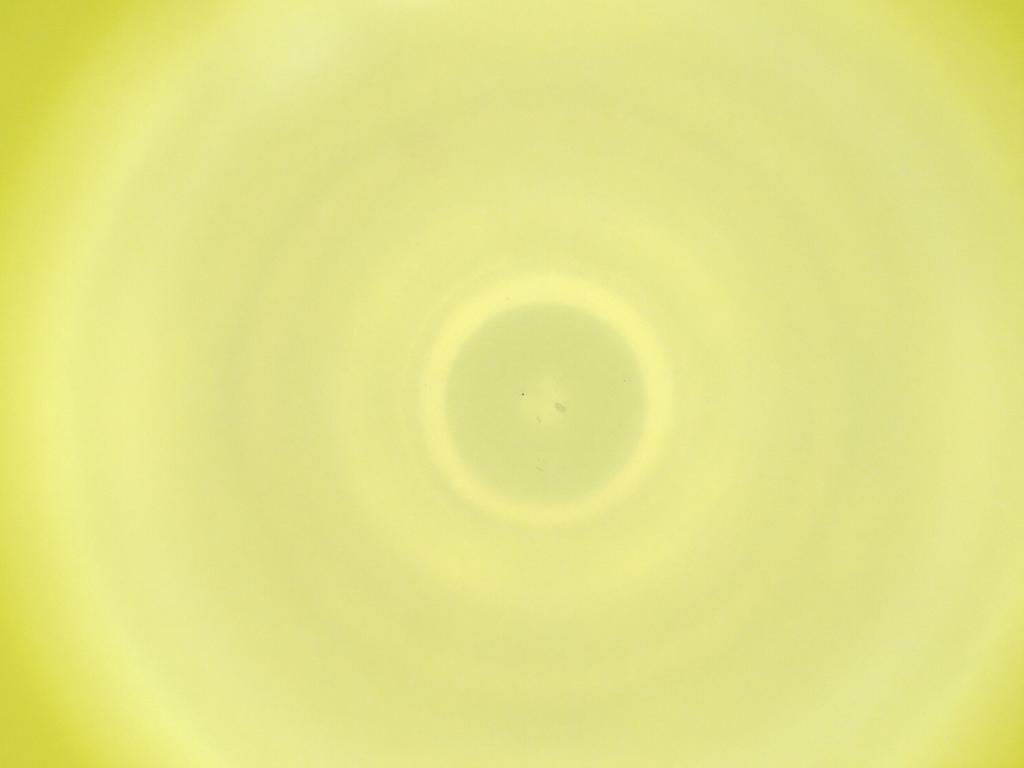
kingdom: Animalia
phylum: Arthropoda
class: Insecta
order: Diptera
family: Cecidomyiidae
